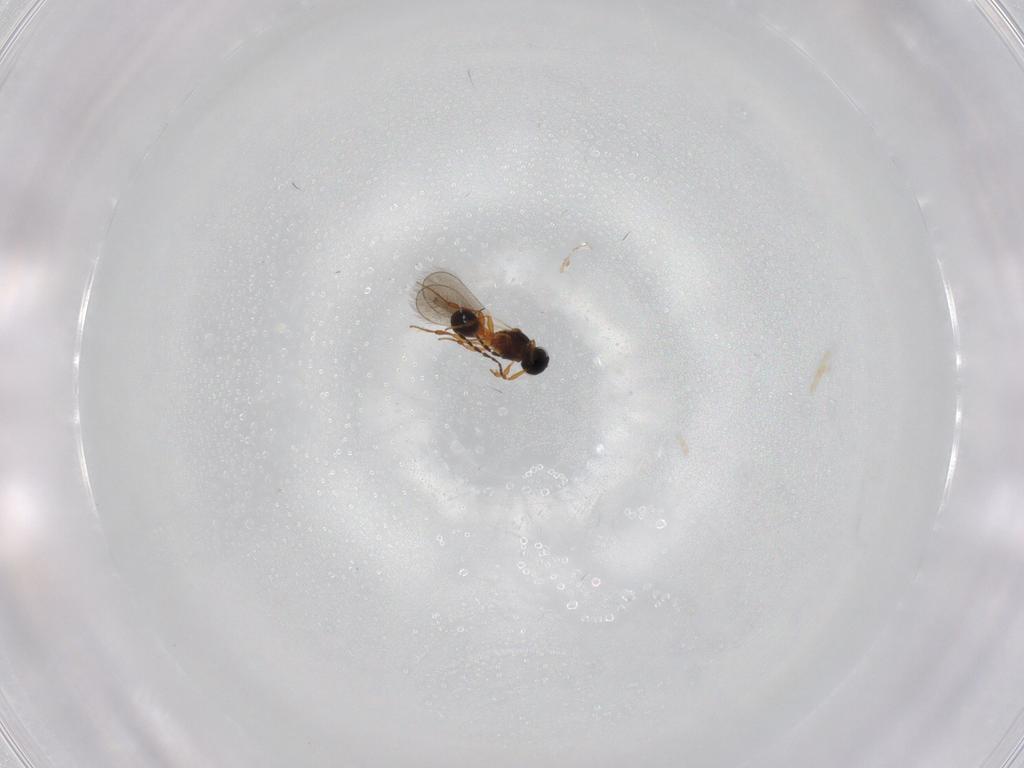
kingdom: Animalia
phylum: Arthropoda
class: Insecta
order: Hymenoptera
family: Platygastridae
